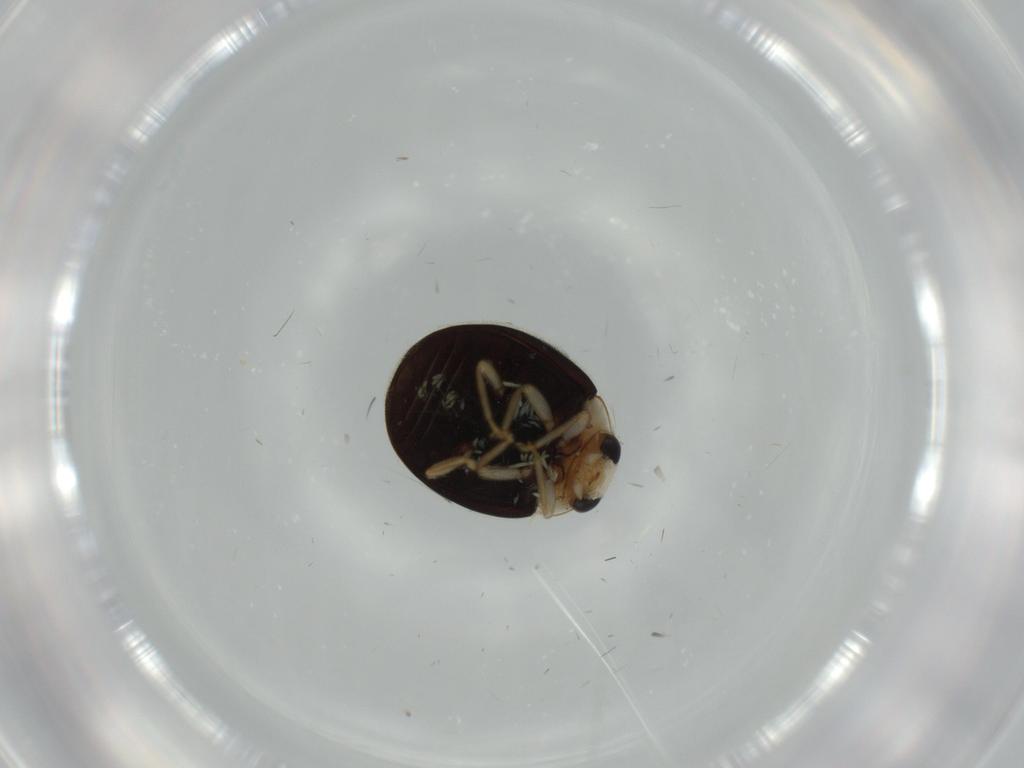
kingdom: Animalia
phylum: Arthropoda
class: Insecta
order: Coleoptera
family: Coccinellidae
